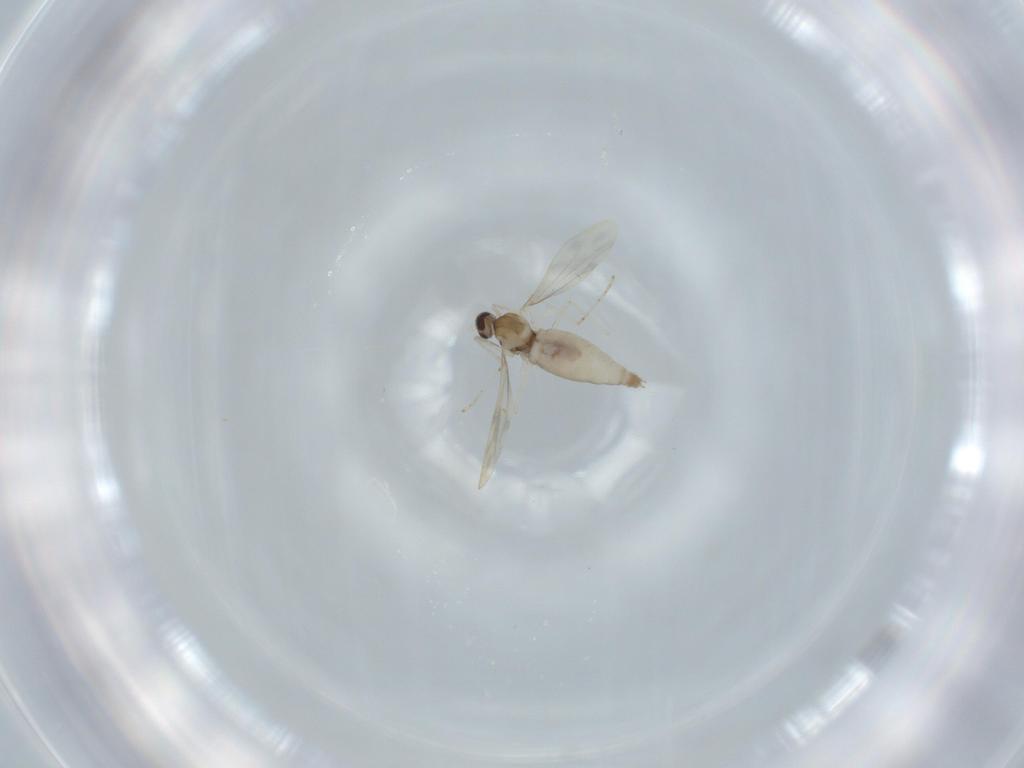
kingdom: Animalia
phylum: Arthropoda
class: Insecta
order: Diptera
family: Cecidomyiidae
